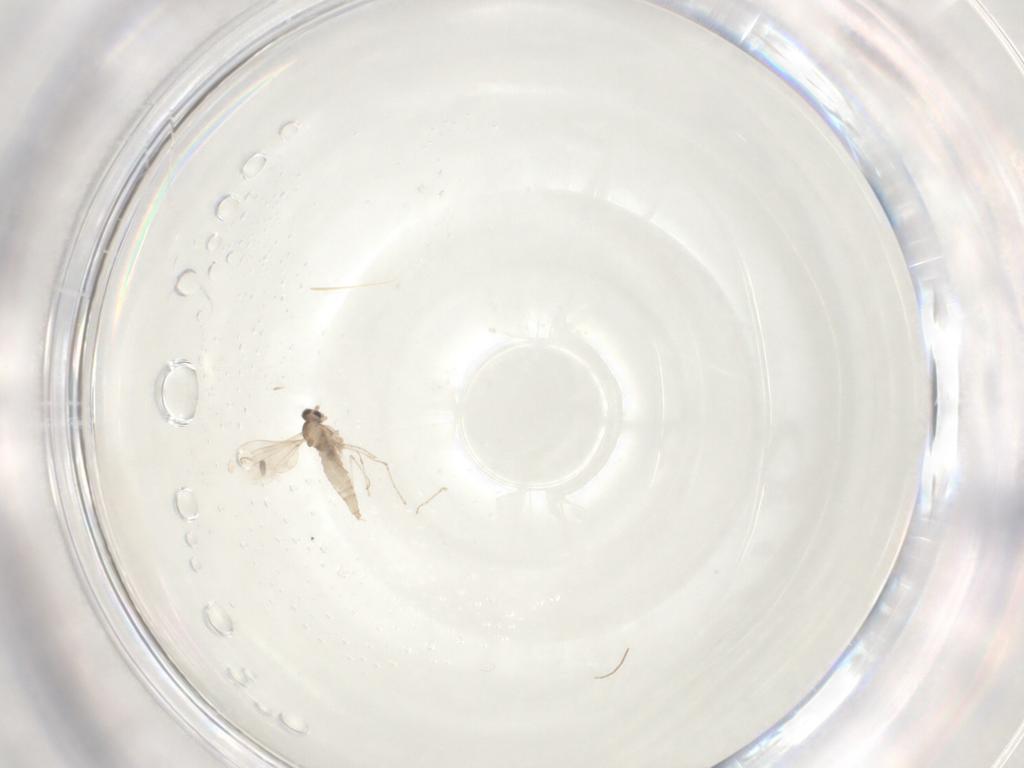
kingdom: Animalia
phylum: Arthropoda
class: Insecta
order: Diptera
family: Cecidomyiidae
